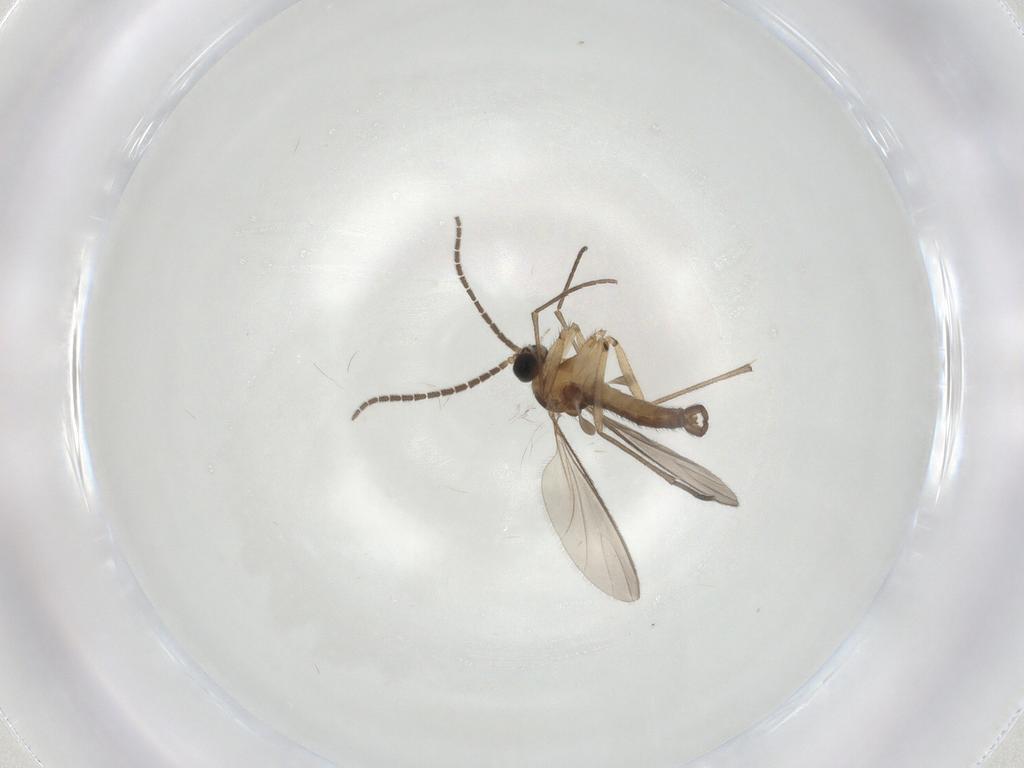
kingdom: Animalia
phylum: Arthropoda
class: Insecta
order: Diptera
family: Sciaridae
